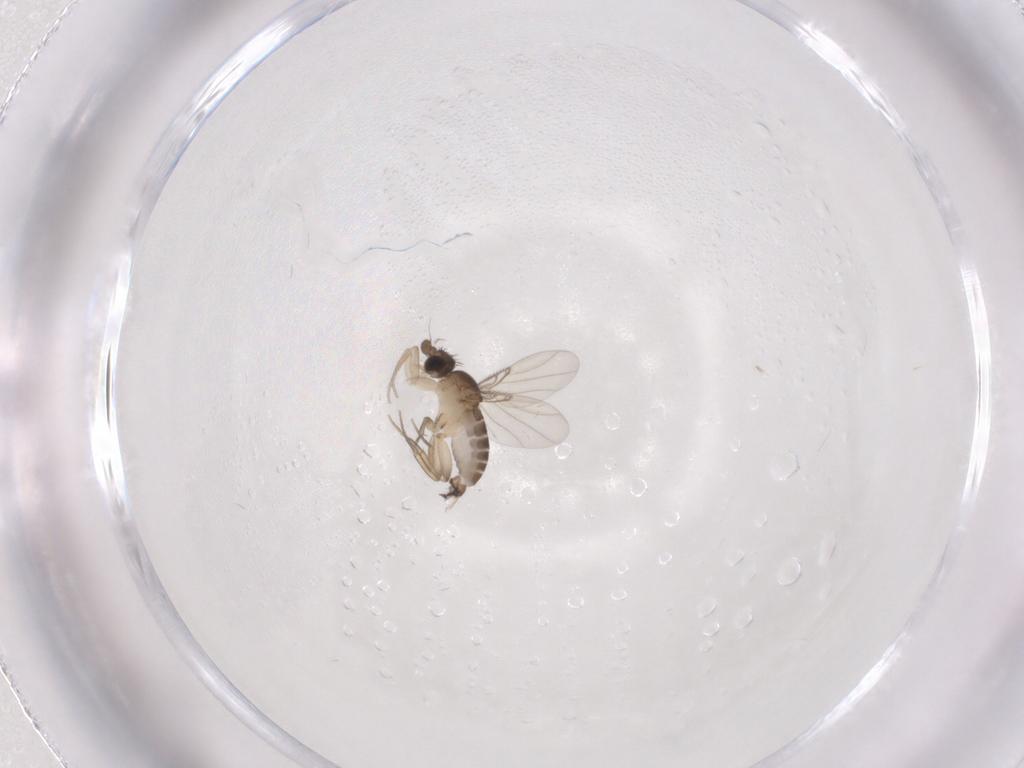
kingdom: Animalia
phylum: Arthropoda
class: Insecta
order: Diptera
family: Phoridae
